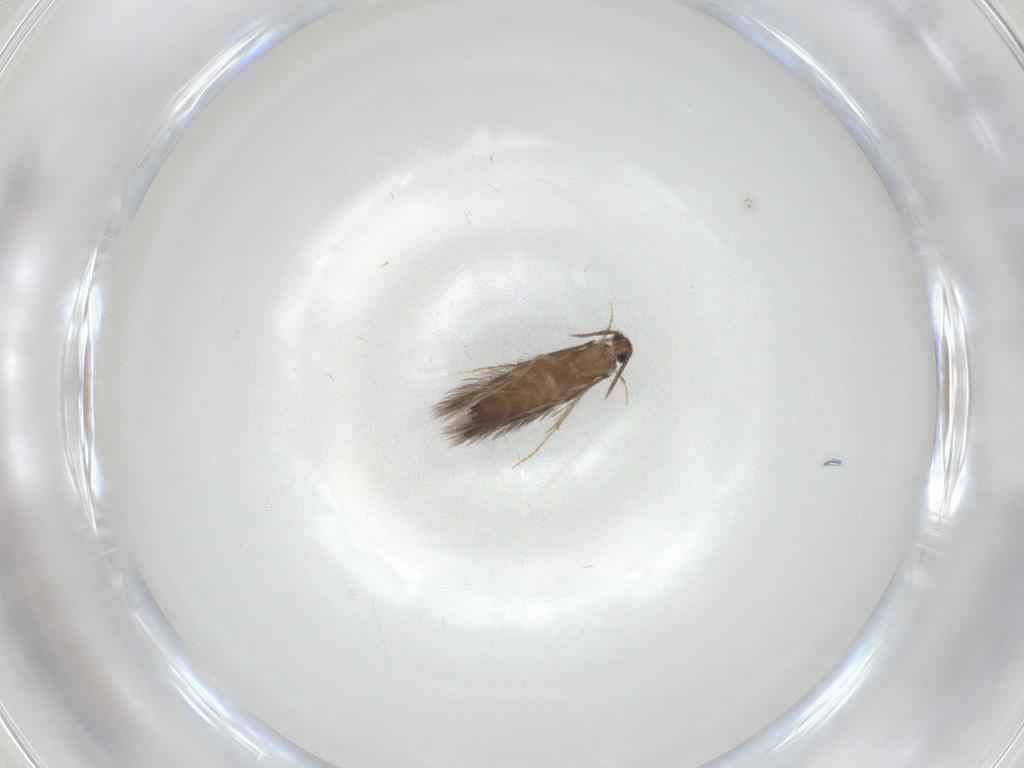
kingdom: Animalia
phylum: Arthropoda
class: Insecta
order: Trichoptera
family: Hydroptilidae
